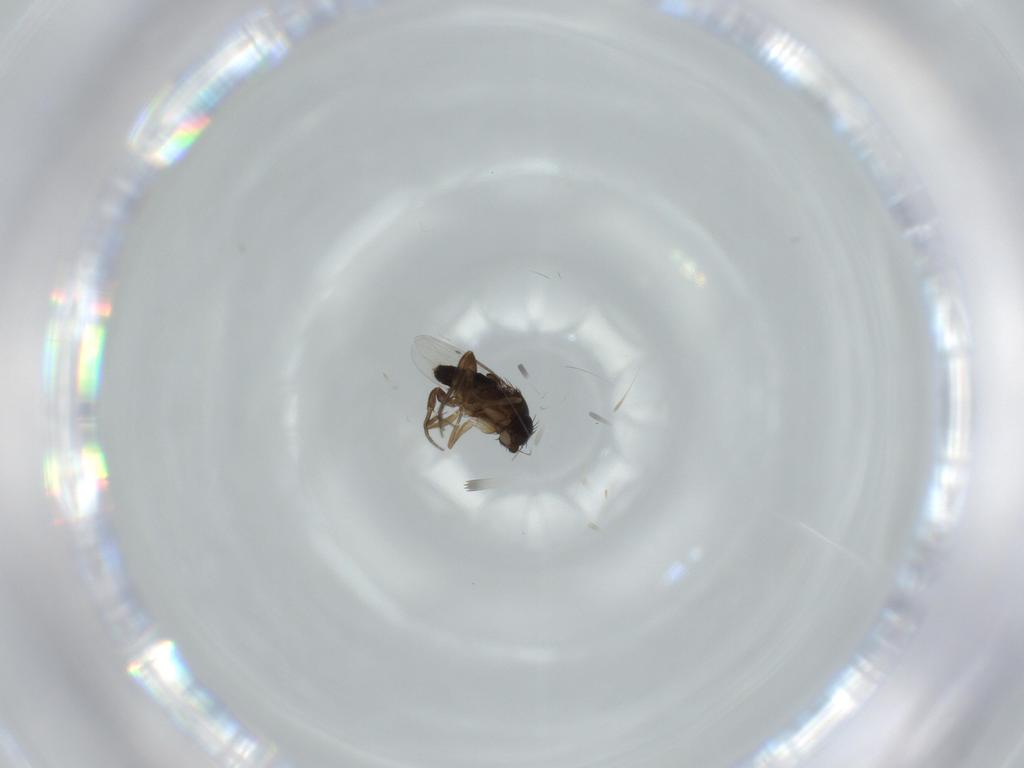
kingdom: Animalia
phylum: Arthropoda
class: Insecta
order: Diptera
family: Phoridae
